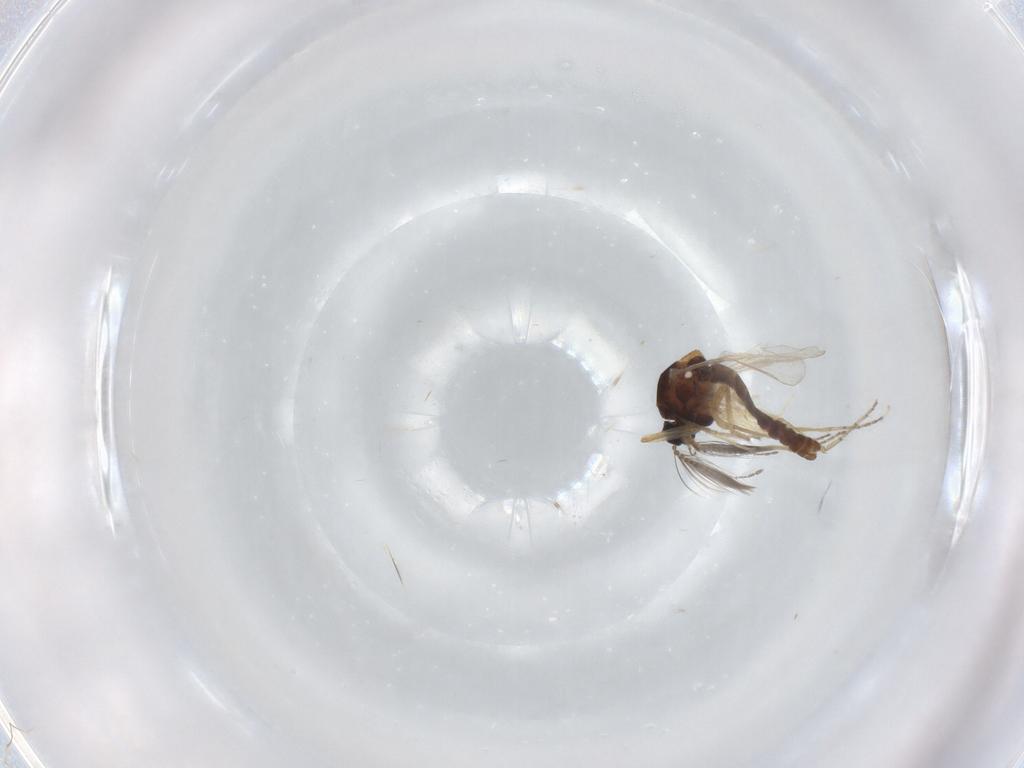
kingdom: Animalia
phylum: Arthropoda
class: Insecta
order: Diptera
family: Ceratopogonidae
